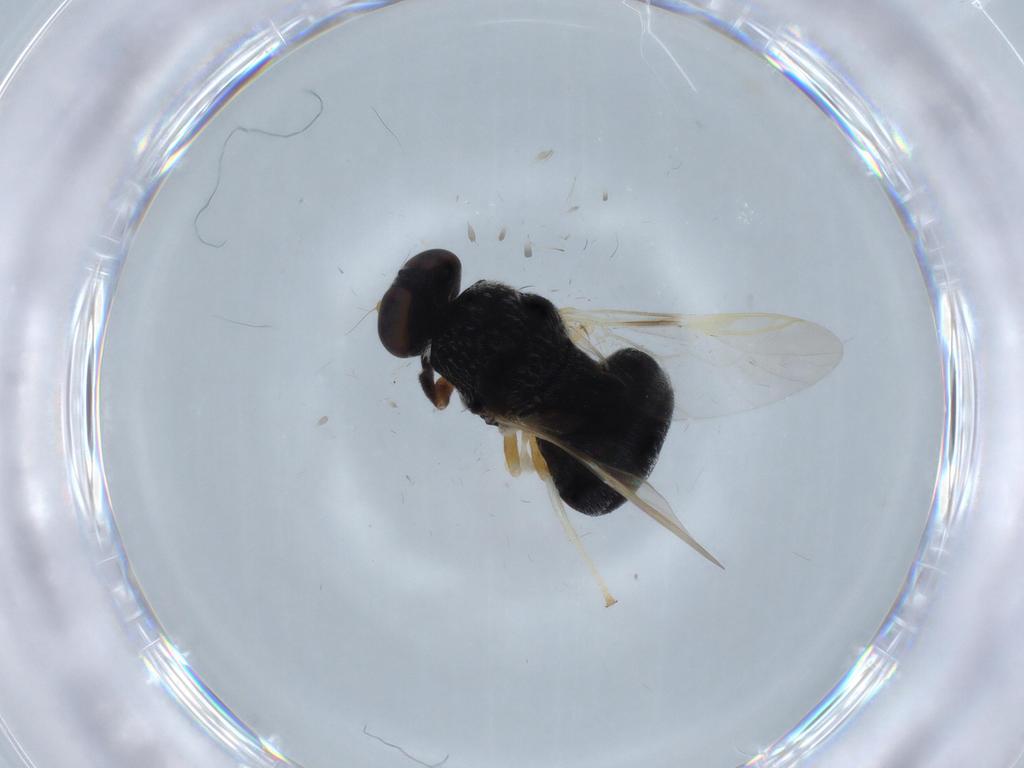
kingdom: Animalia
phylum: Arthropoda
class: Insecta
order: Diptera
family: Stratiomyidae
